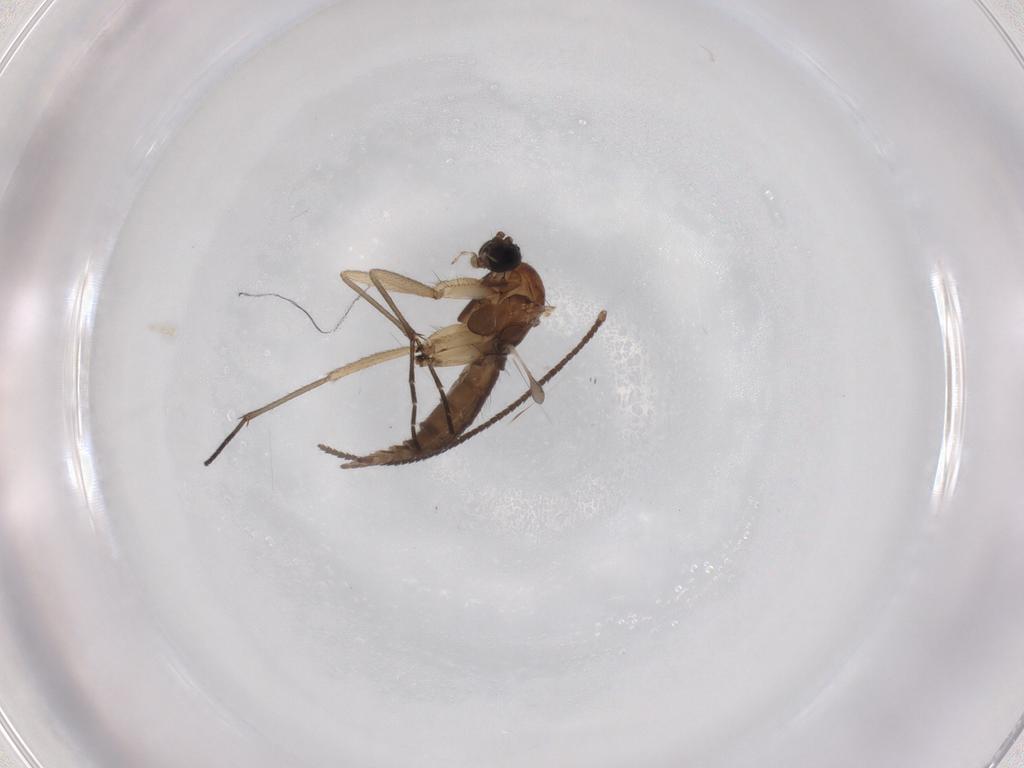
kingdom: Animalia
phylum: Arthropoda
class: Insecta
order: Diptera
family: Sciaridae
